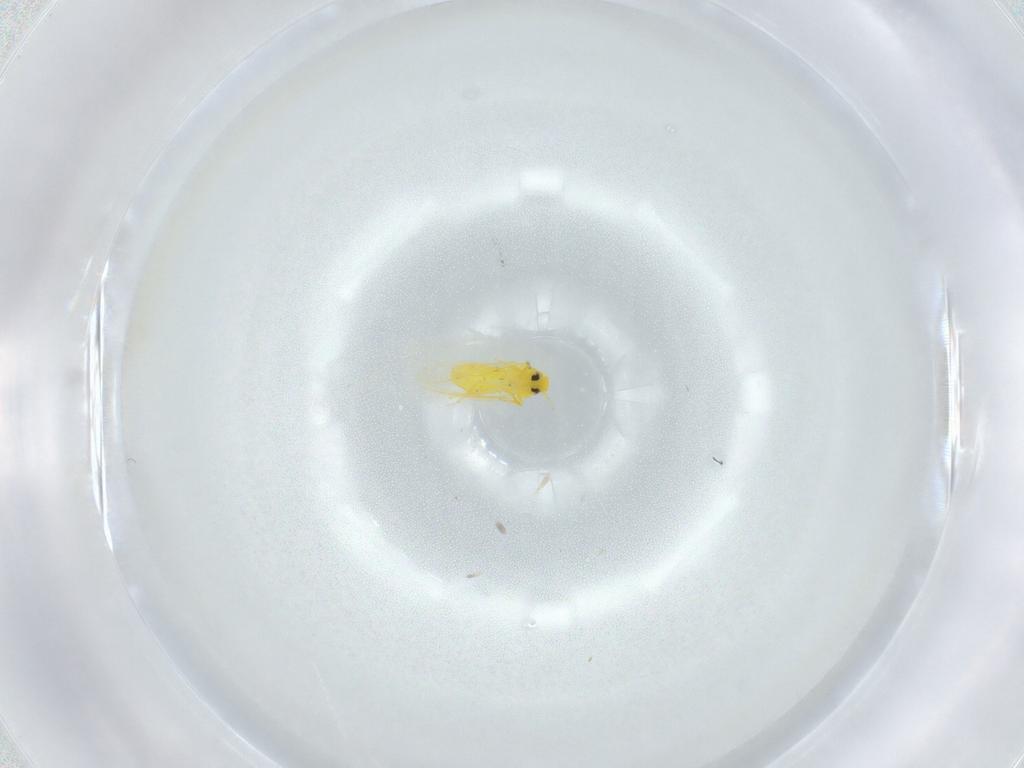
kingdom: Animalia
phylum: Arthropoda
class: Insecta
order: Hemiptera
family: Aleyrodidae
